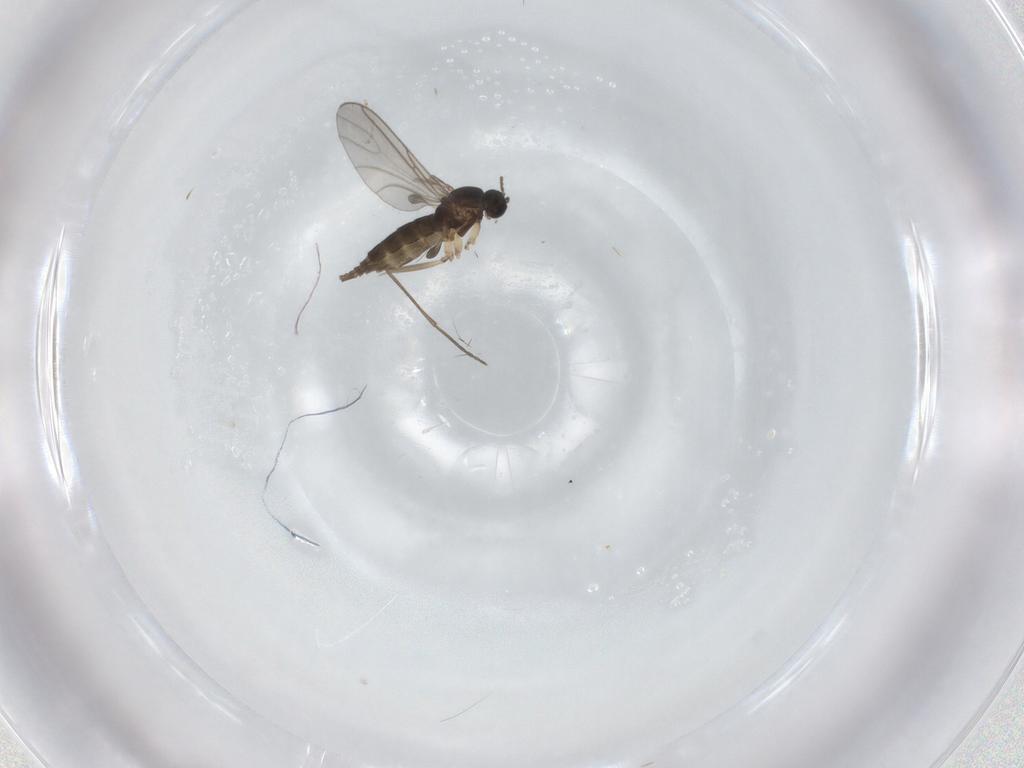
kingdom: Animalia
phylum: Arthropoda
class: Insecta
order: Diptera
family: Sciaridae
